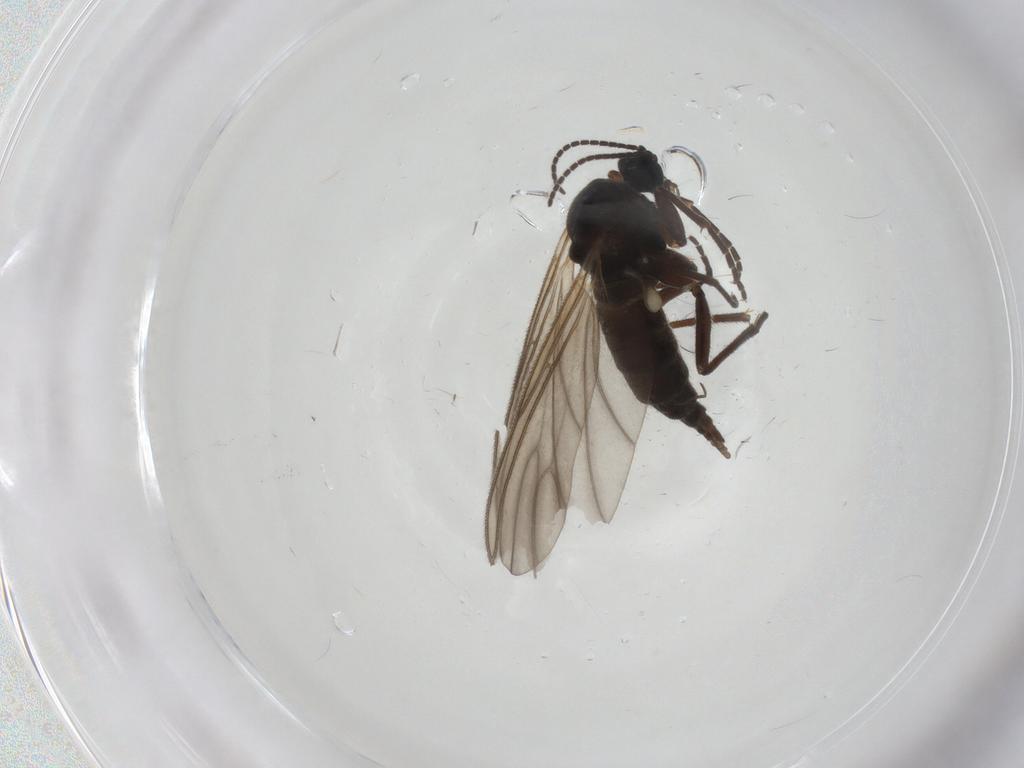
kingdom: Animalia
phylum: Arthropoda
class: Insecta
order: Diptera
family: Sciaridae
